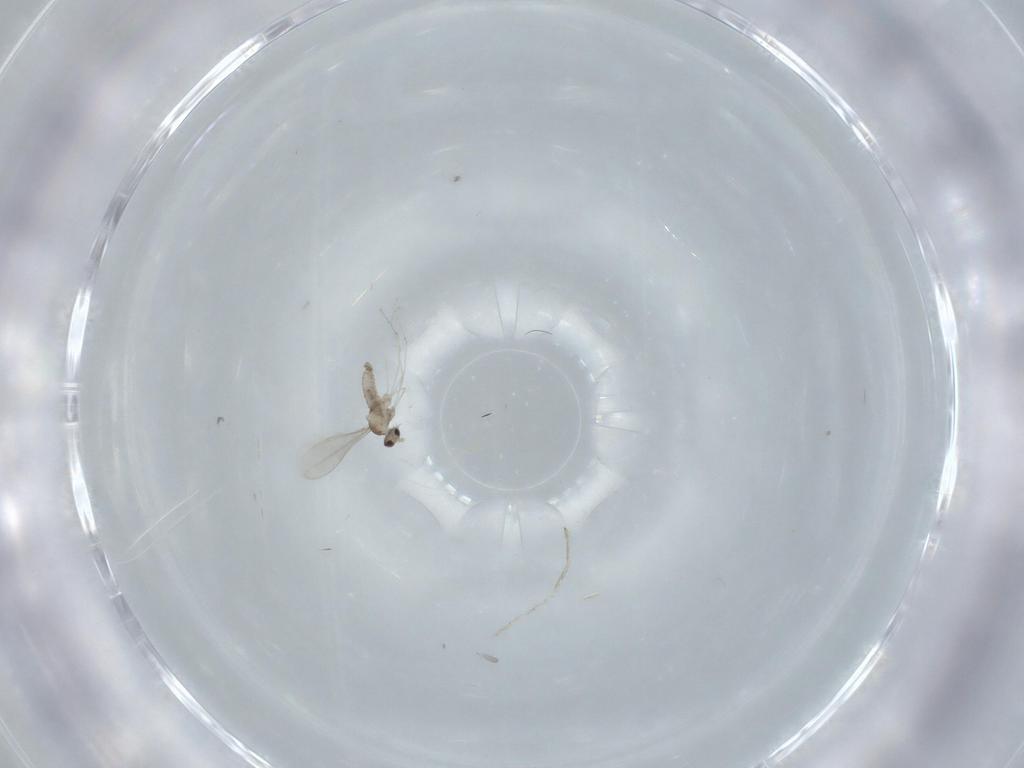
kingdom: Animalia
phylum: Arthropoda
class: Insecta
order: Diptera
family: Cecidomyiidae
